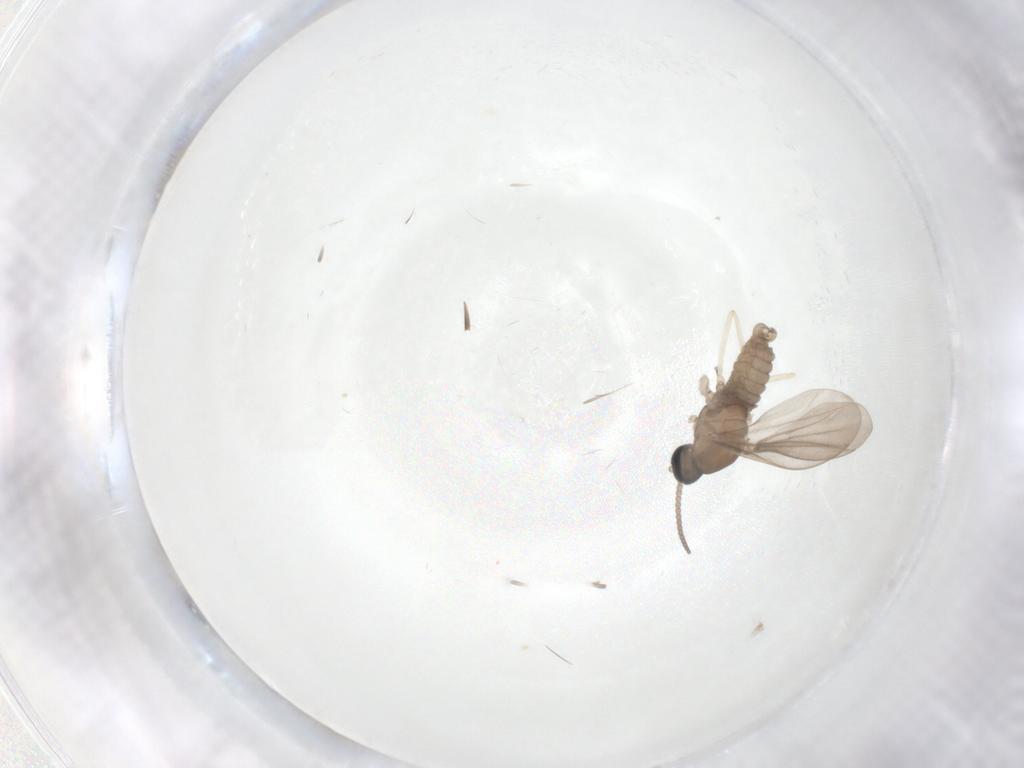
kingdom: Animalia
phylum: Arthropoda
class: Insecta
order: Diptera
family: Cecidomyiidae
